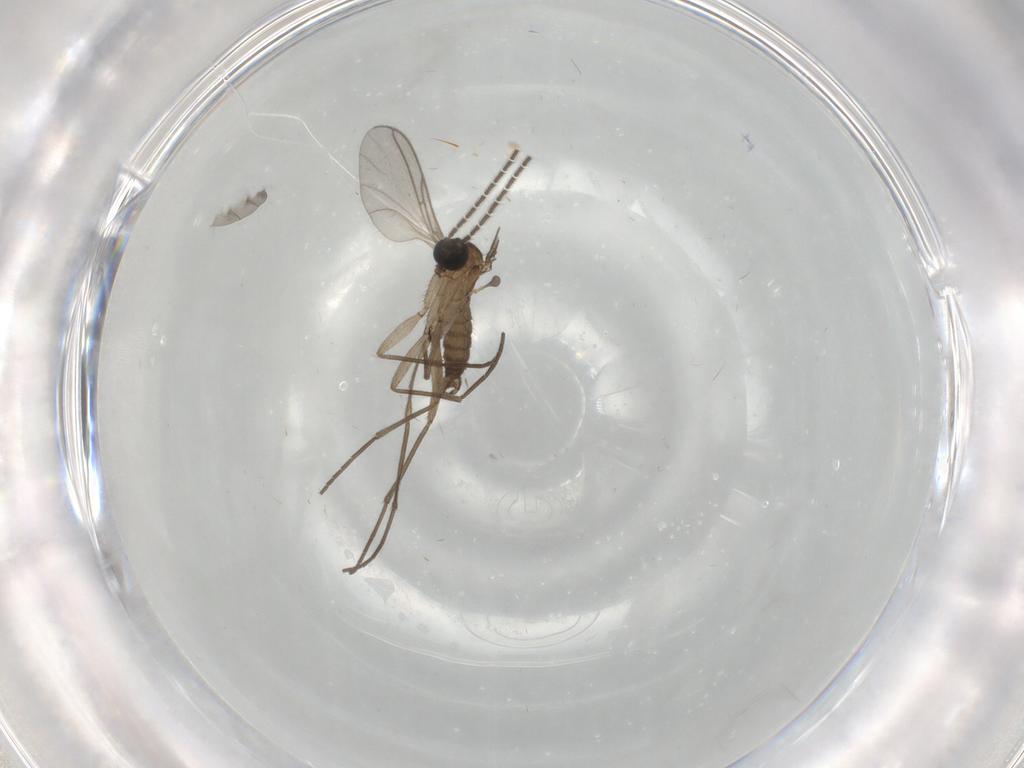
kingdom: Animalia
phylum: Arthropoda
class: Insecta
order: Diptera
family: Sciaridae
